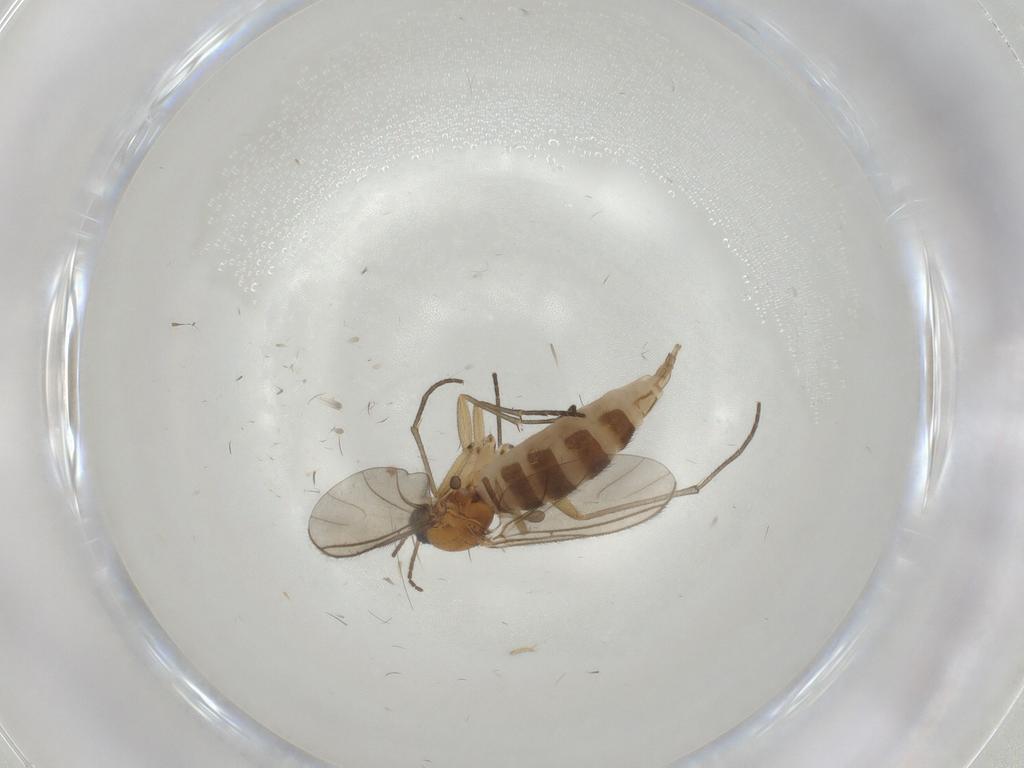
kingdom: Animalia
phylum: Arthropoda
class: Insecta
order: Diptera
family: Sciaridae
